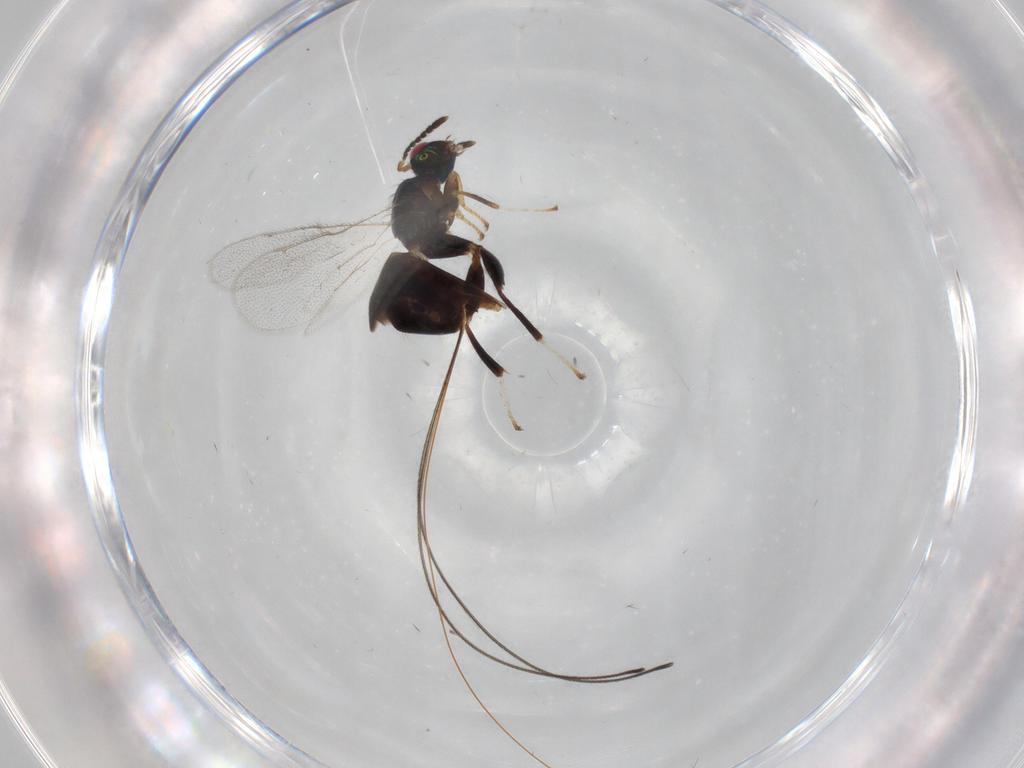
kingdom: Animalia
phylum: Arthropoda
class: Insecta
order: Hymenoptera
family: Torymidae
